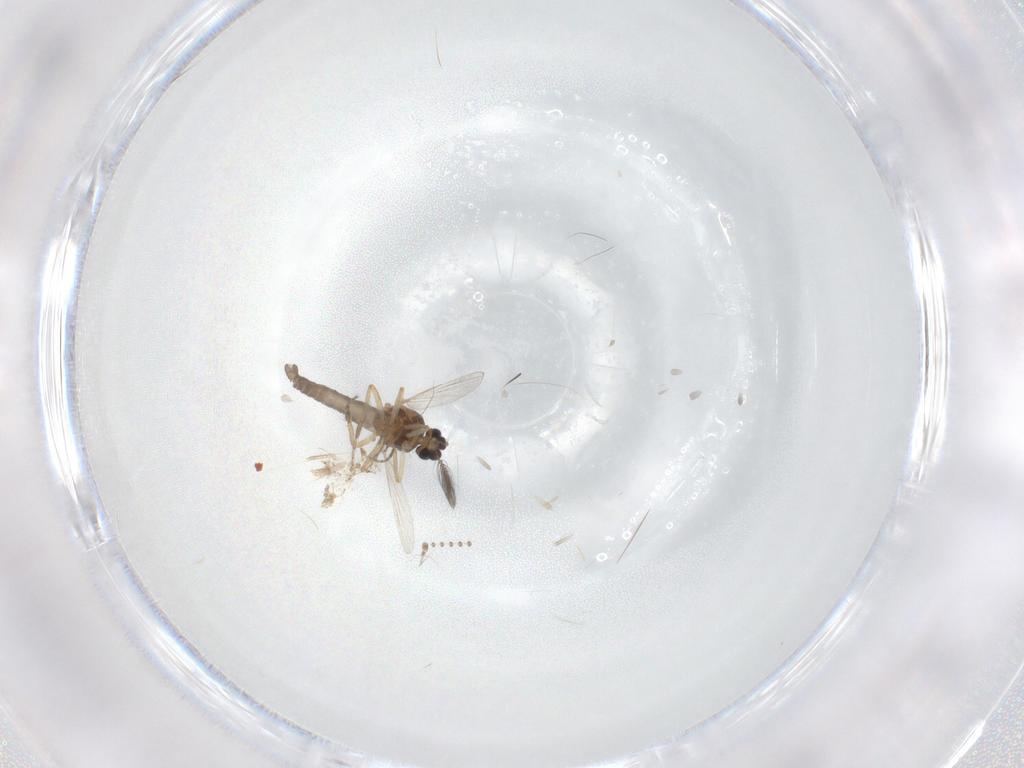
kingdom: Animalia
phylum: Arthropoda
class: Insecta
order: Diptera
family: Ceratopogonidae
